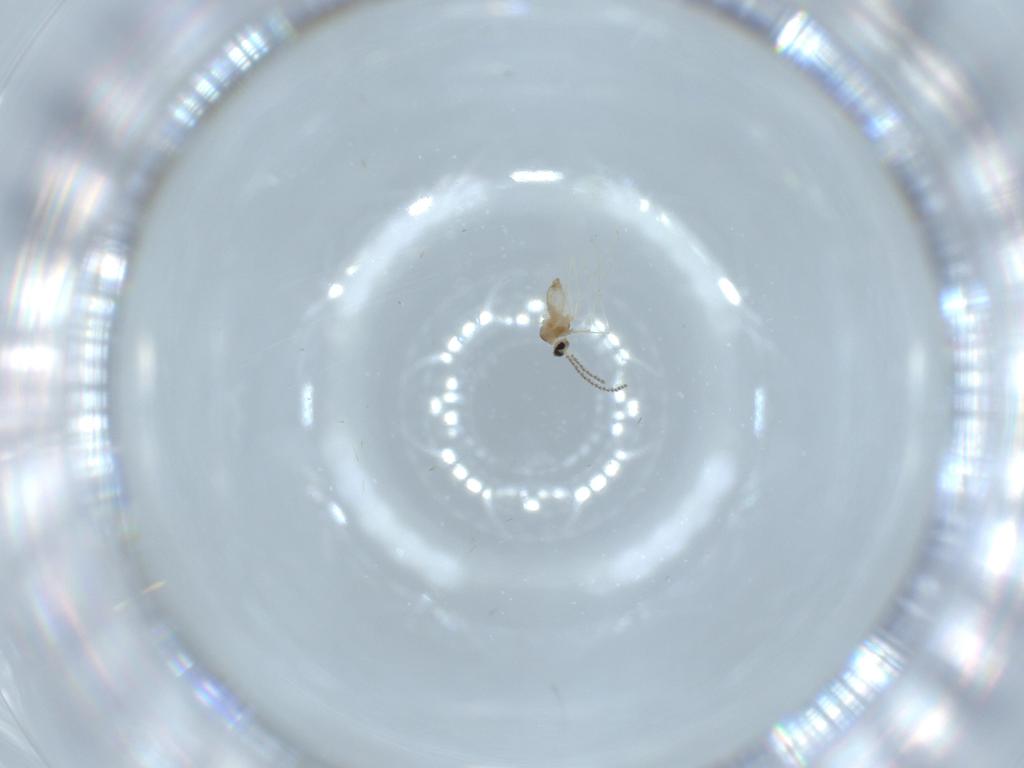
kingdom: Animalia
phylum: Arthropoda
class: Insecta
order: Diptera
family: Cecidomyiidae
